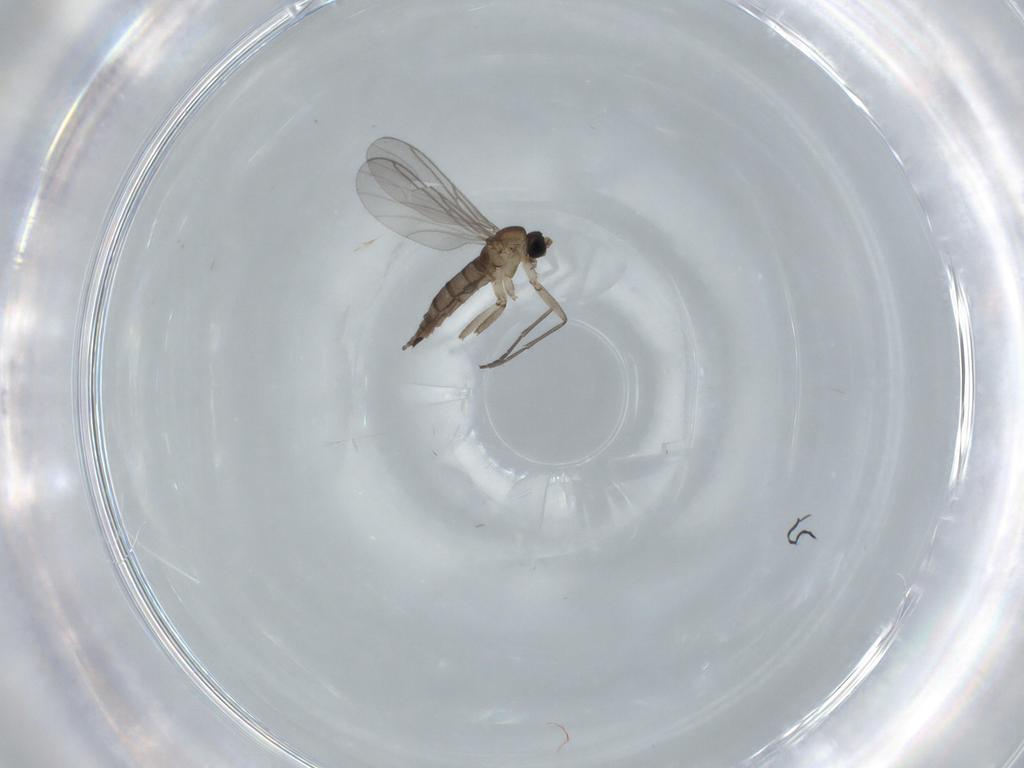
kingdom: Animalia
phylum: Arthropoda
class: Insecta
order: Diptera
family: Sciaridae
